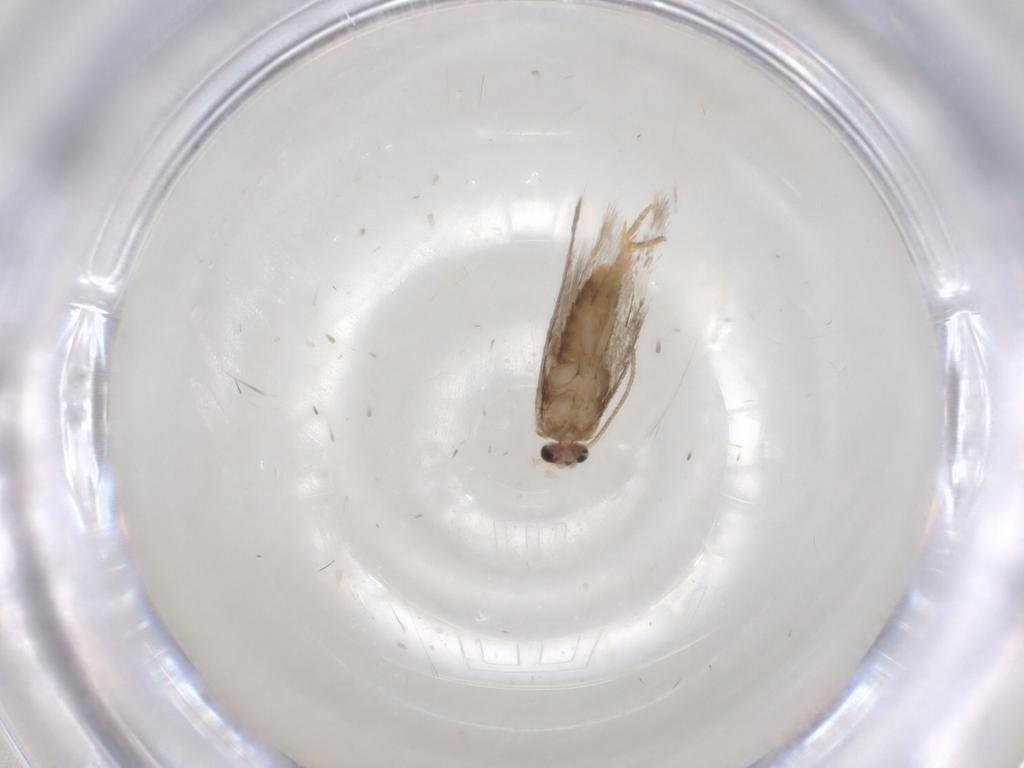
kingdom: Animalia
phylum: Arthropoda
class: Insecta
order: Lepidoptera
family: Nepticulidae
